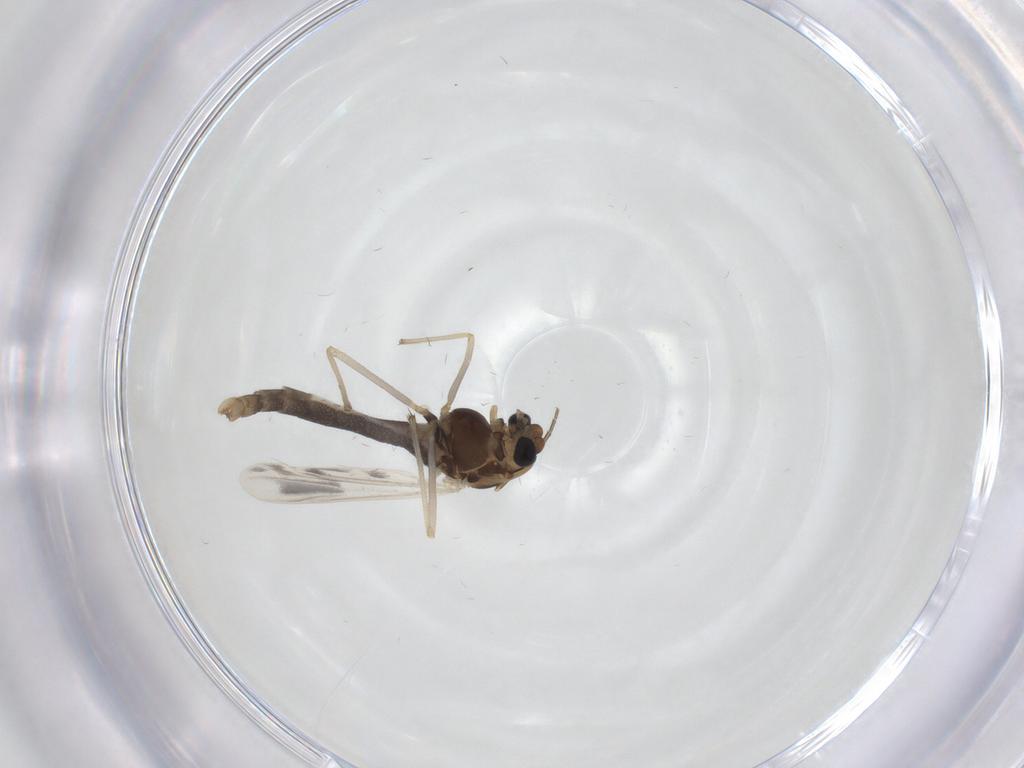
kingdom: Animalia
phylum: Arthropoda
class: Insecta
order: Diptera
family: Chironomidae
